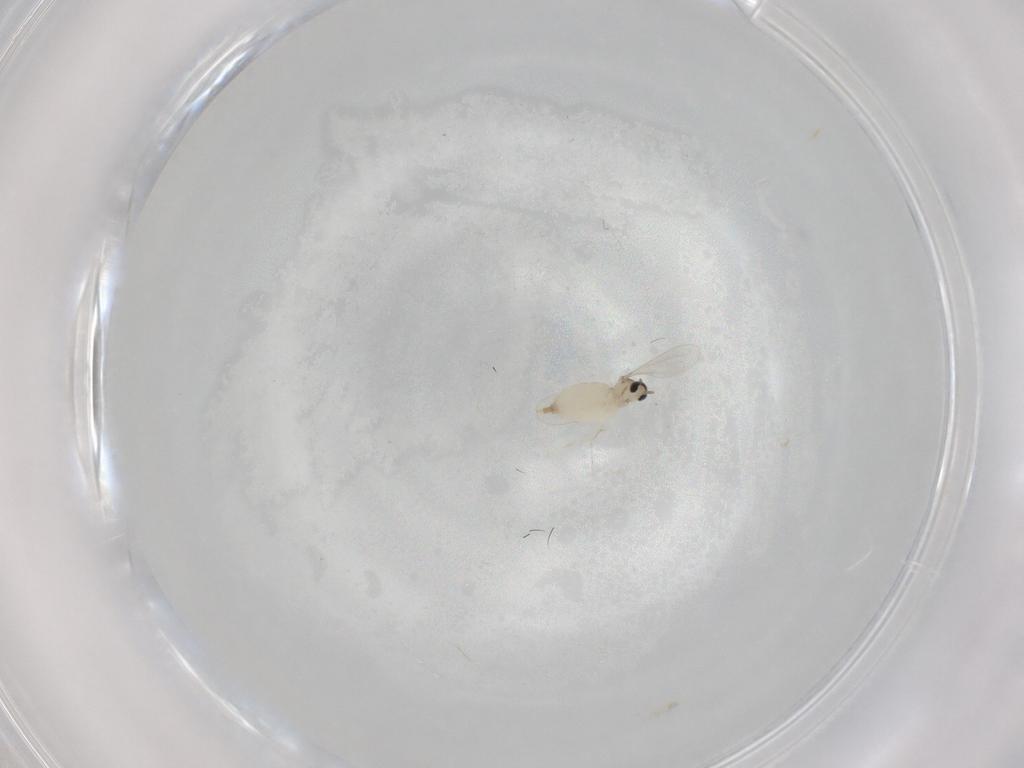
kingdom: Animalia
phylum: Arthropoda
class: Insecta
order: Diptera
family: Cecidomyiidae
